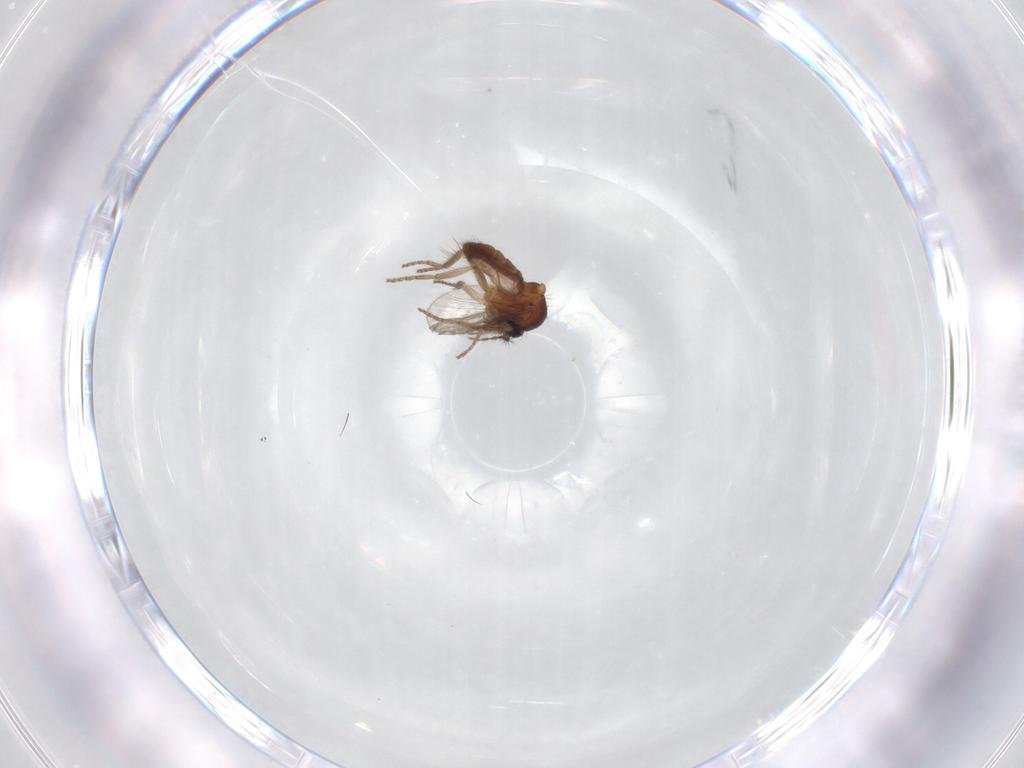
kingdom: Animalia
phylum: Arthropoda
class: Insecta
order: Diptera
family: Ceratopogonidae
